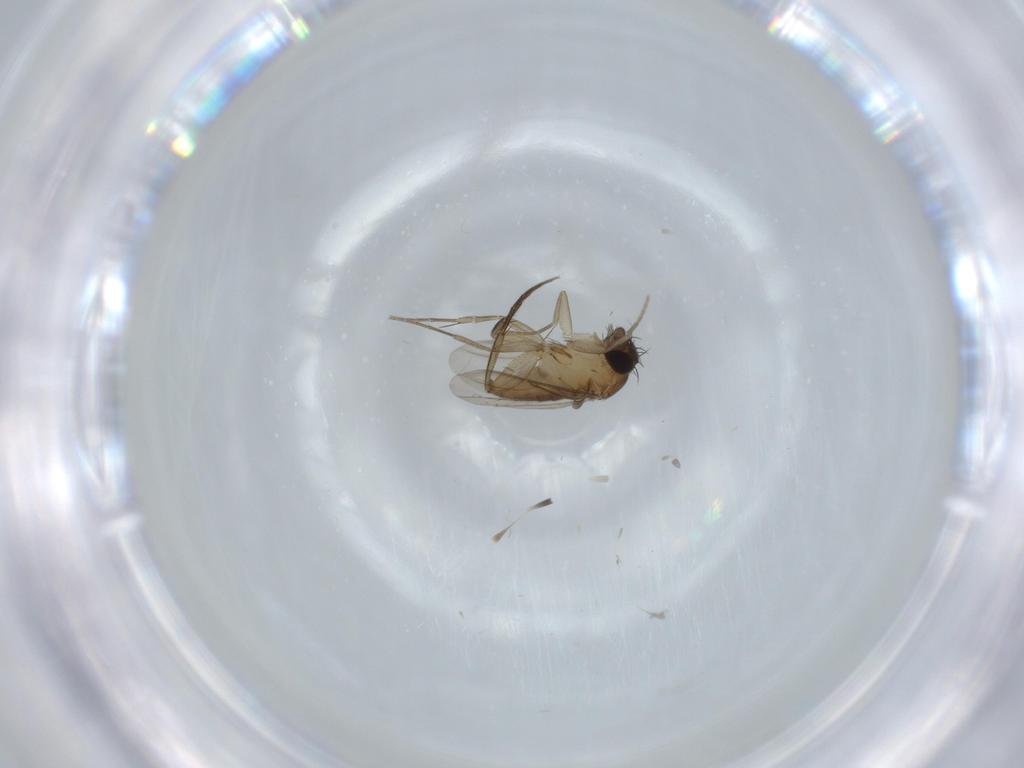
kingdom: Animalia
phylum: Arthropoda
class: Insecta
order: Diptera
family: Phoridae
